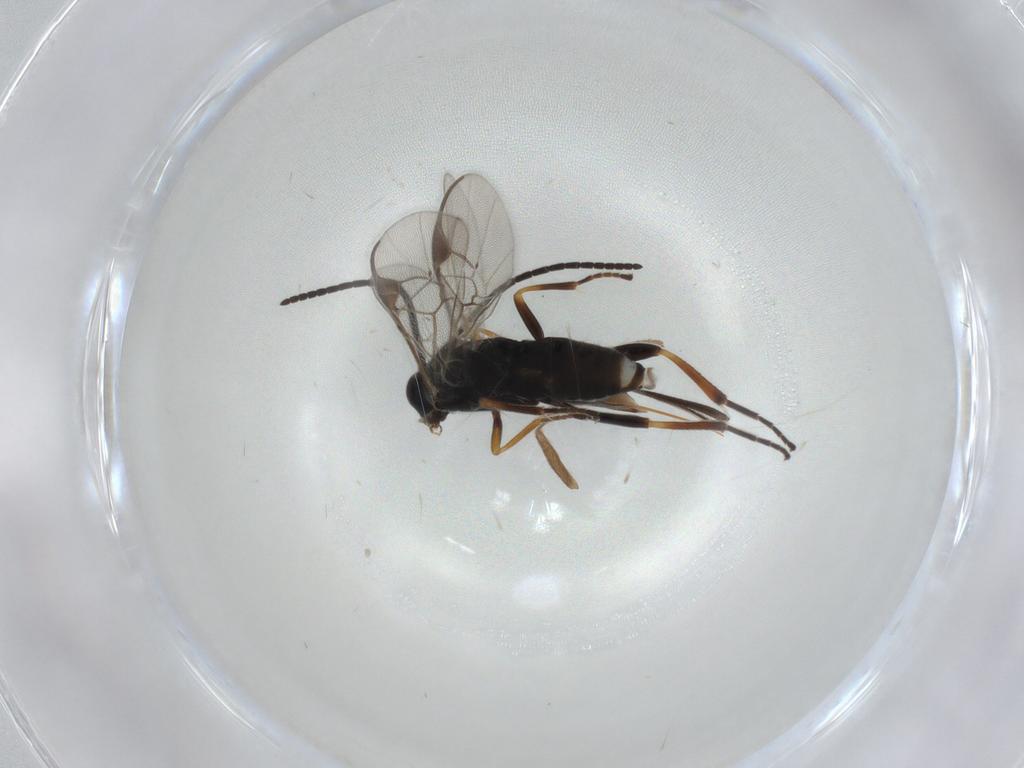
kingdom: Animalia
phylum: Arthropoda
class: Insecta
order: Hymenoptera
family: Braconidae
